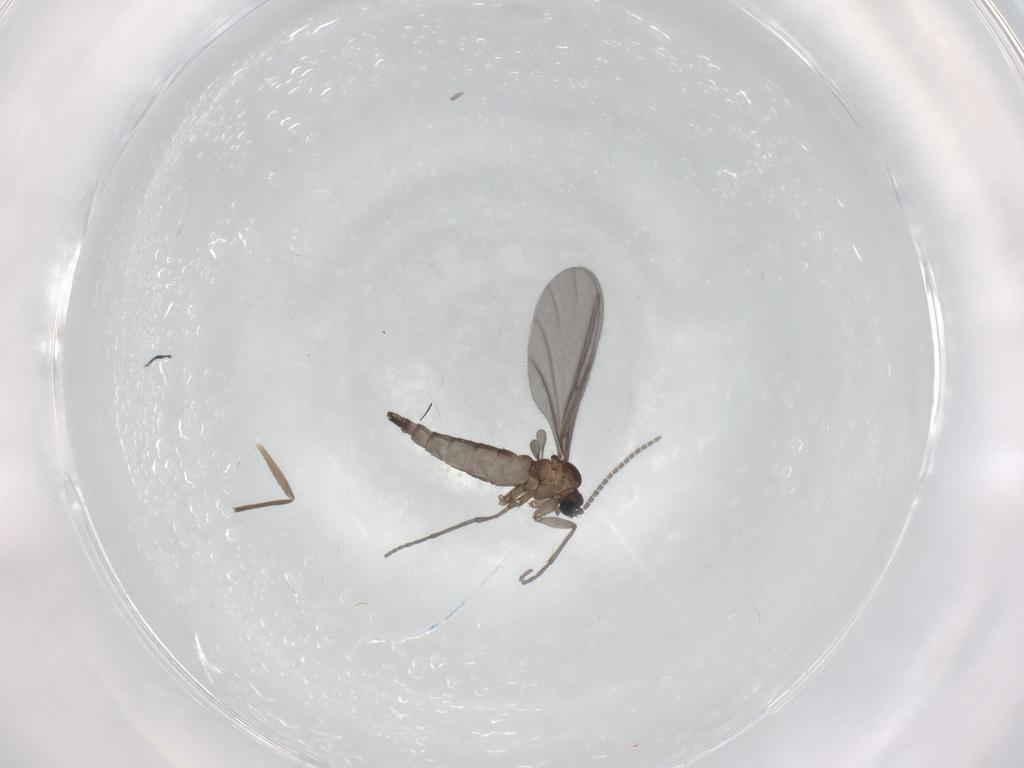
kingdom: Animalia
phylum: Arthropoda
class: Insecta
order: Diptera
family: Sciaridae
